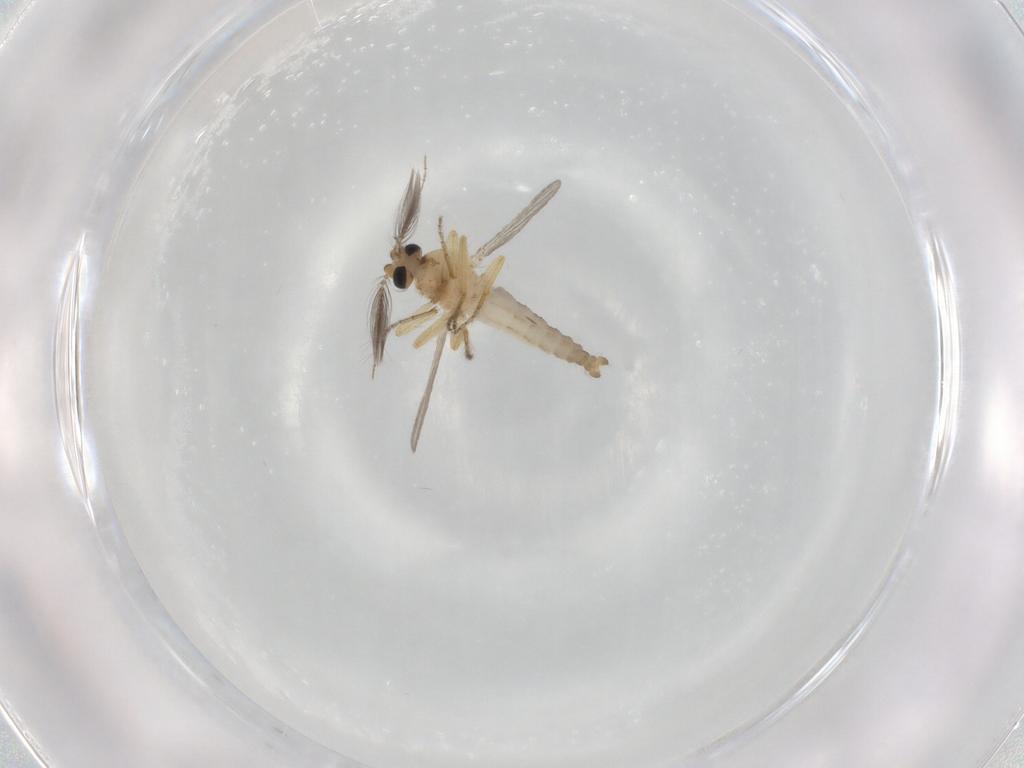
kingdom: Animalia
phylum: Arthropoda
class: Insecta
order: Diptera
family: Ceratopogonidae
